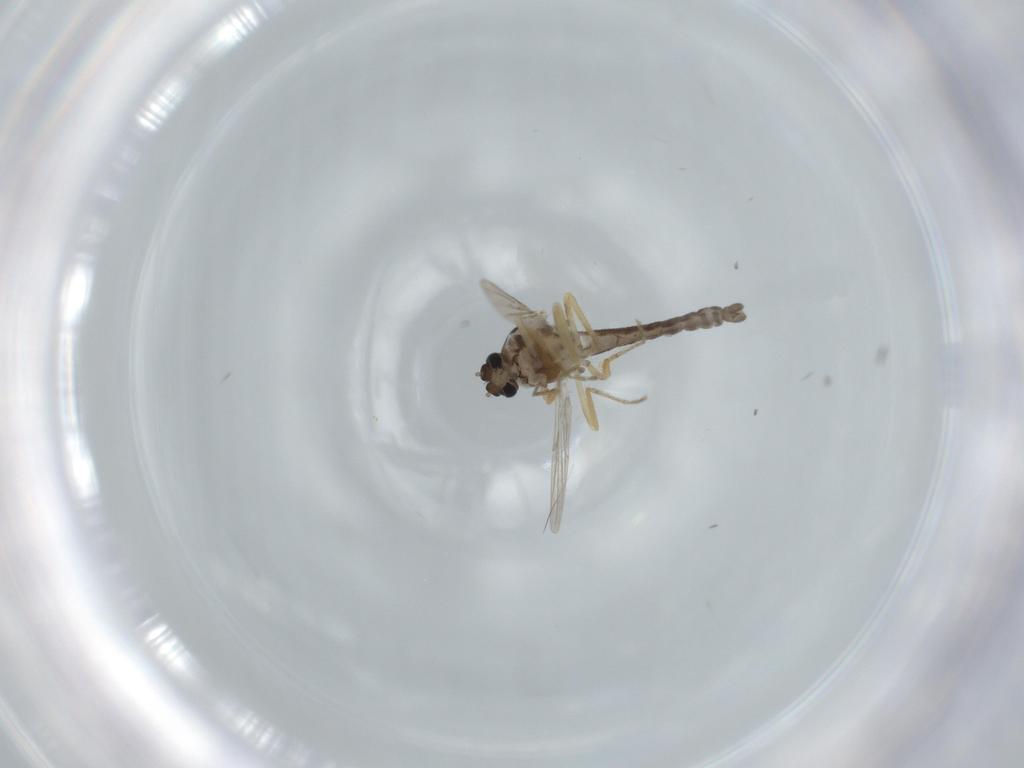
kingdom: Animalia
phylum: Arthropoda
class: Insecta
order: Diptera
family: Ceratopogonidae
